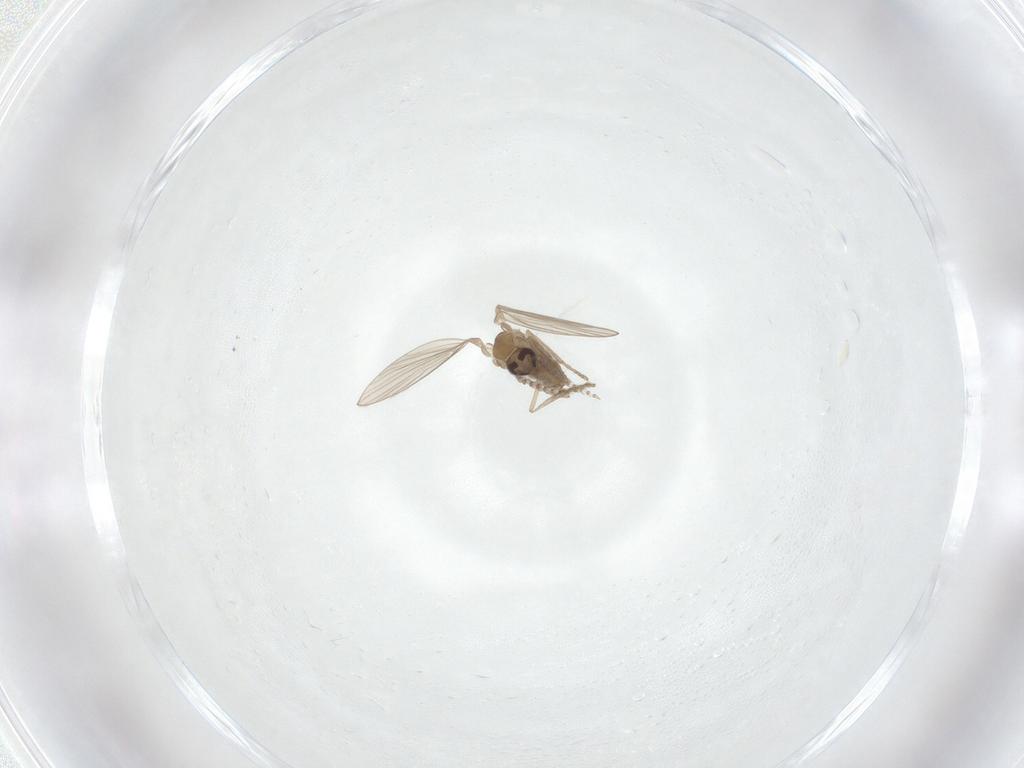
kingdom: Animalia
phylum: Arthropoda
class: Insecta
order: Diptera
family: Psychodidae
